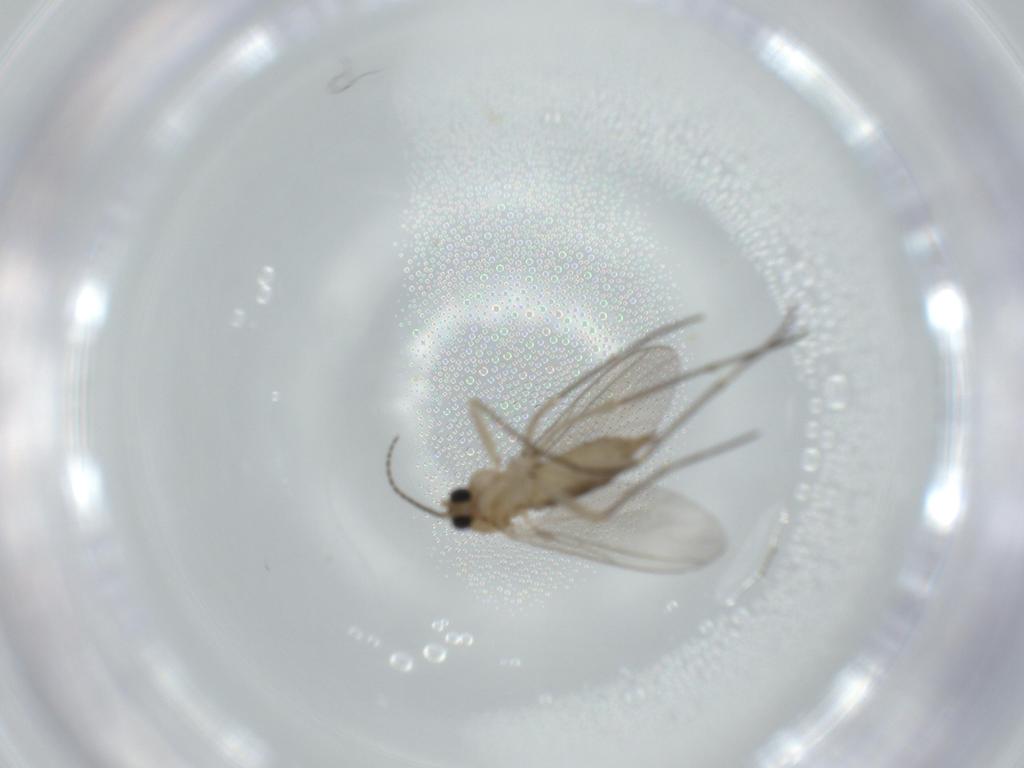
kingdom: Animalia
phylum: Arthropoda
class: Insecta
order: Diptera
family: Sciaridae
